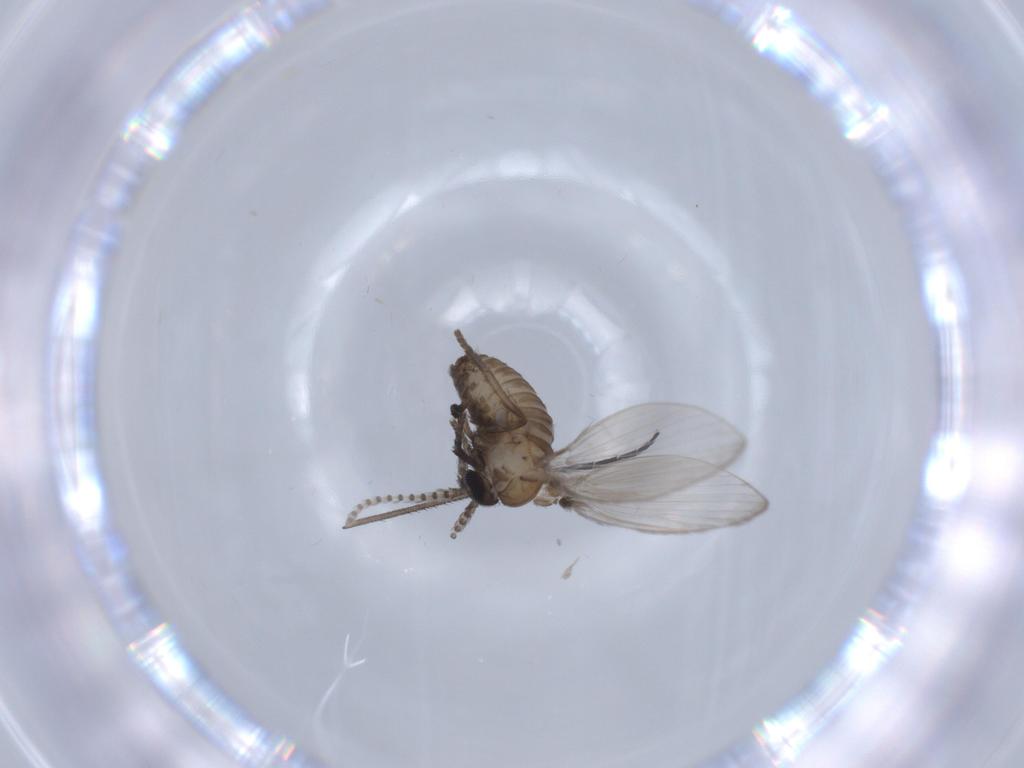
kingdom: Animalia
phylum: Arthropoda
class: Insecta
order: Diptera
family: Sciaridae
